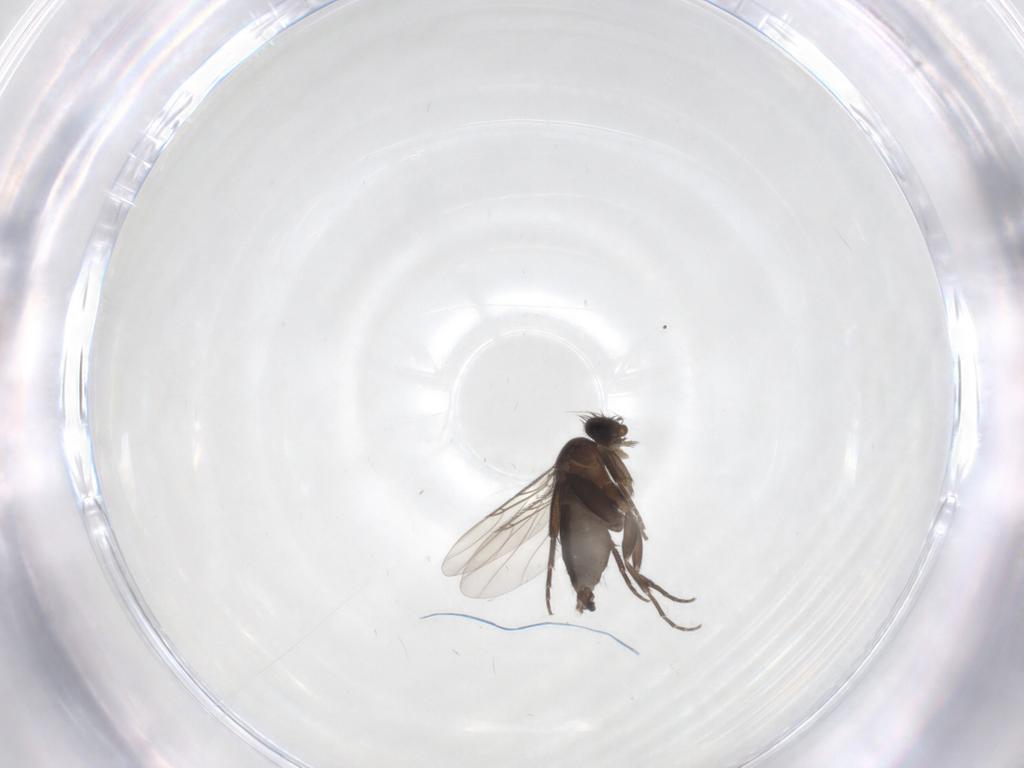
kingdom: Animalia
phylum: Arthropoda
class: Insecta
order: Diptera
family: Phoridae
